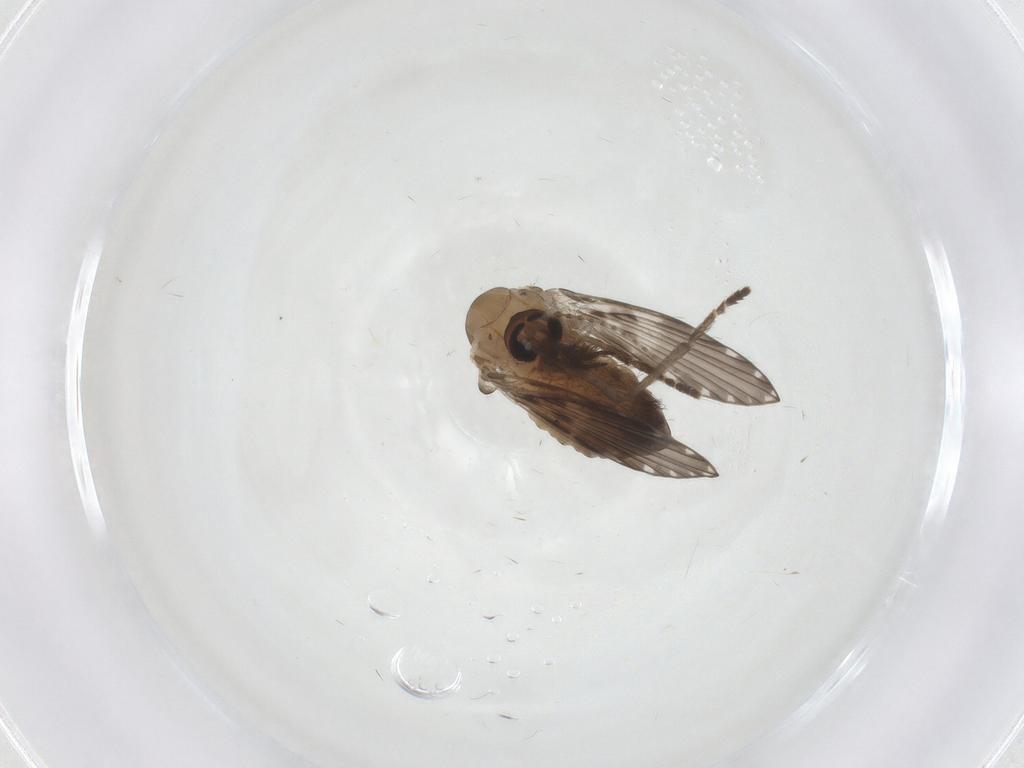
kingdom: Animalia
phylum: Arthropoda
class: Insecta
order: Diptera
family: Psychodidae
